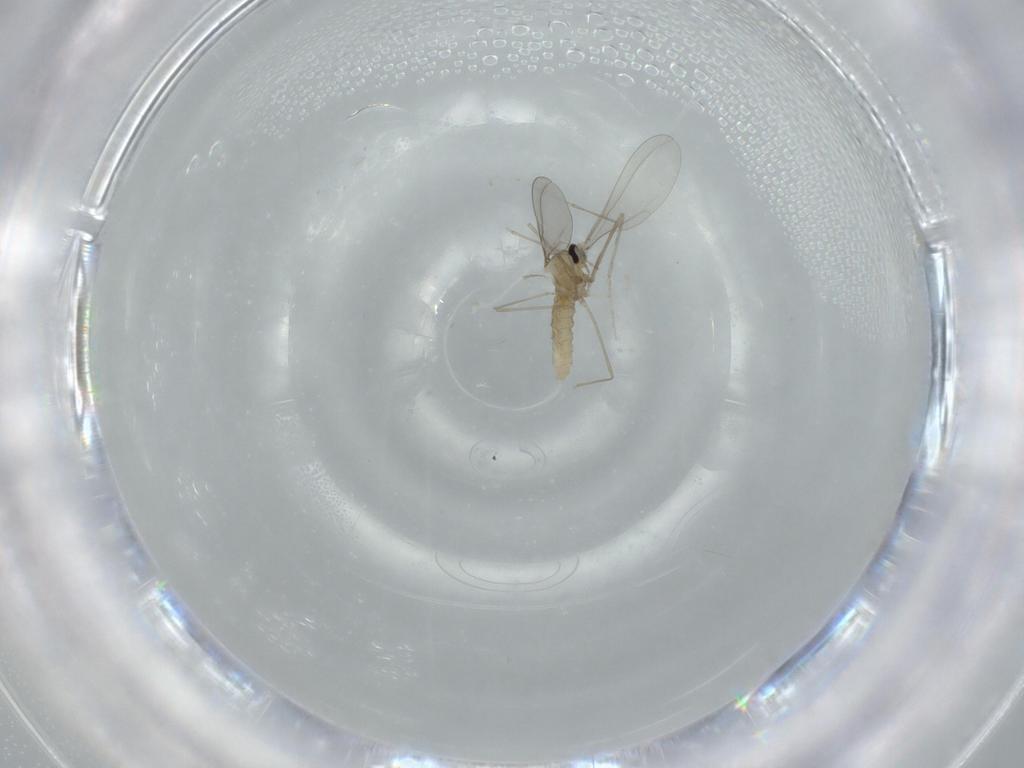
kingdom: Animalia
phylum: Arthropoda
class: Insecta
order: Diptera
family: Cecidomyiidae
